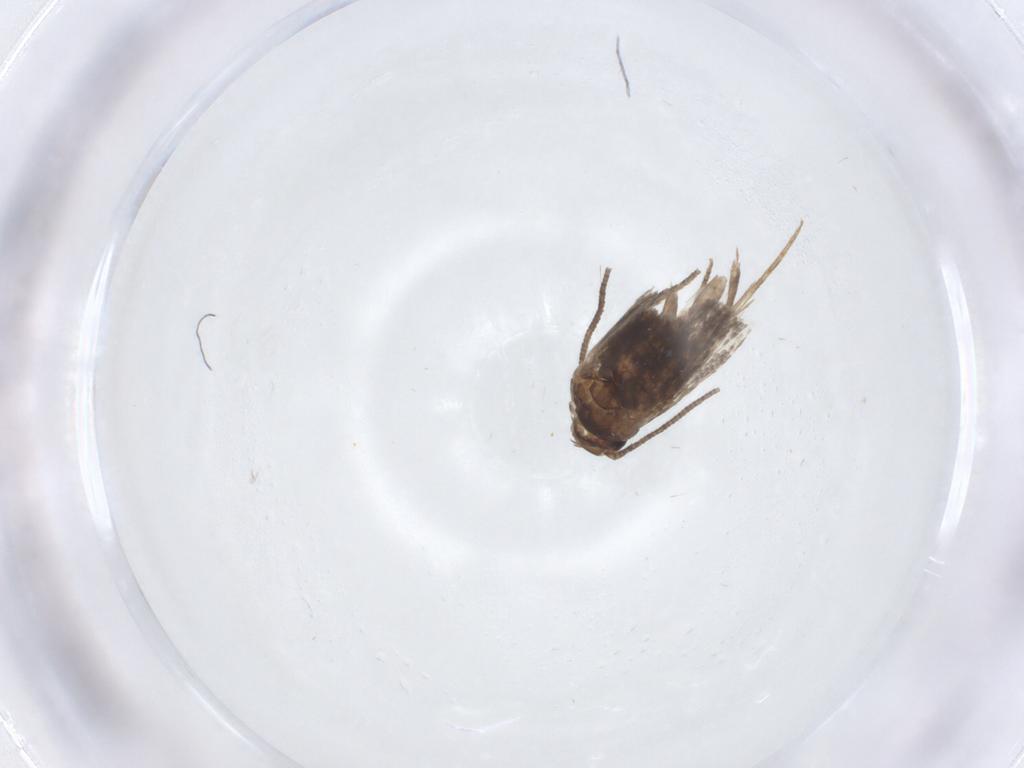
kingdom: Animalia
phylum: Arthropoda
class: Insecta
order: Lepidoptera
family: Elachistidae
